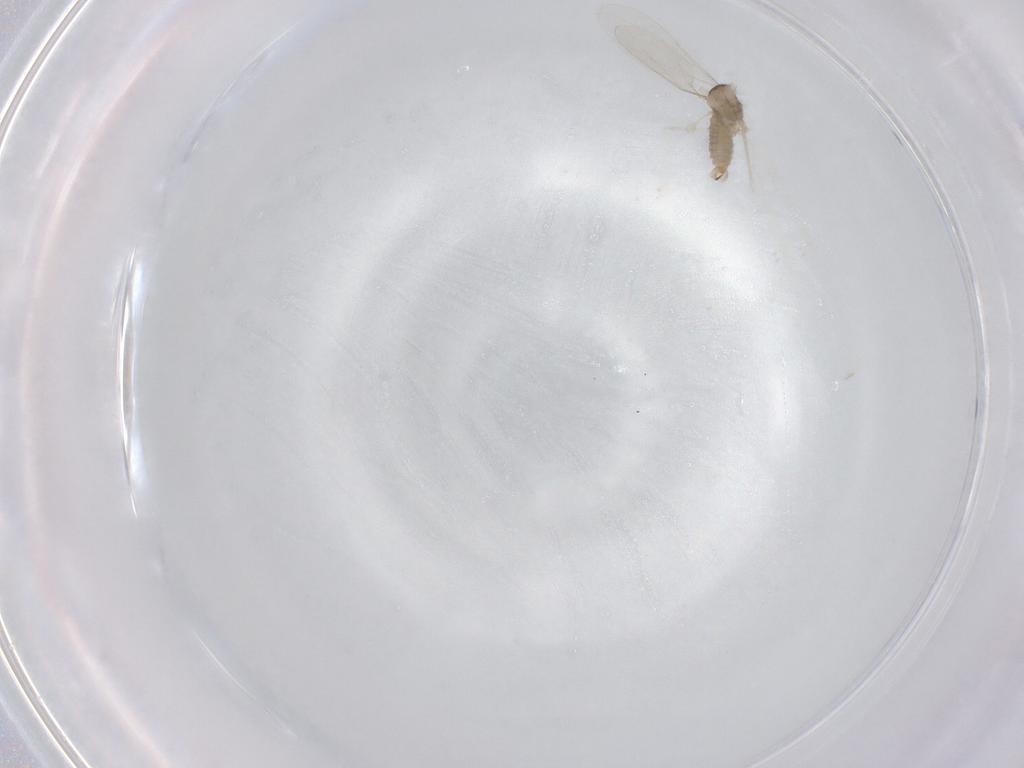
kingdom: Animalia
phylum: Arthropoda
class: Insecta
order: Diptera
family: Cecidomyiidae
